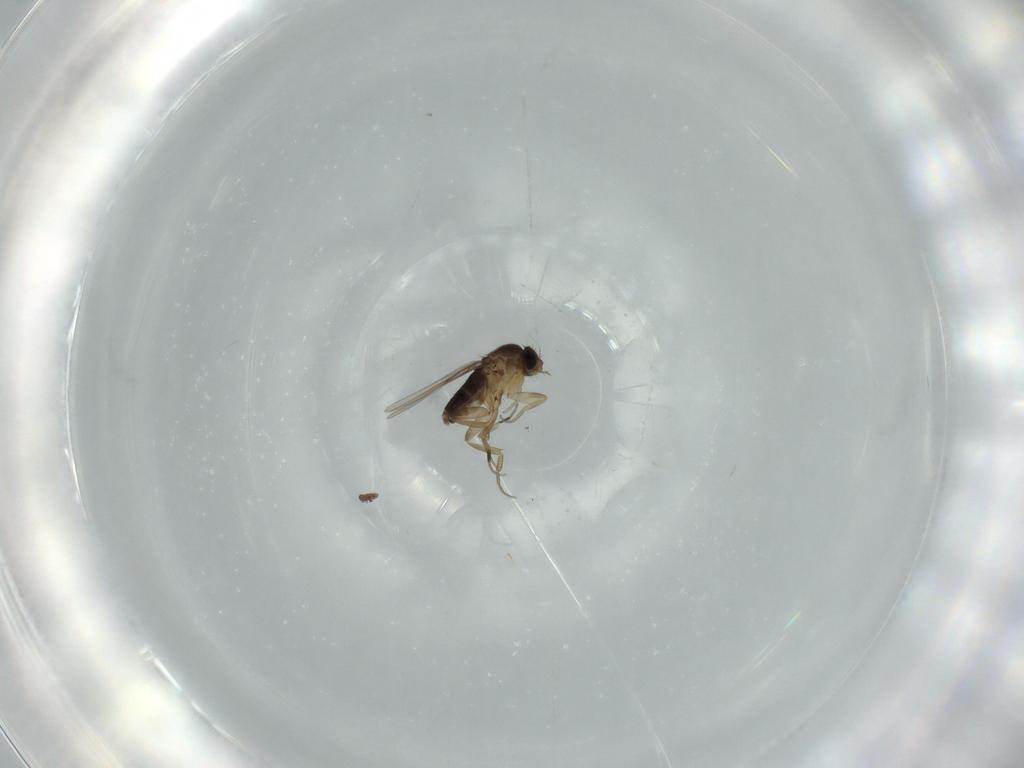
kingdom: Animalia
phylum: Arthropoda
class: Insecta
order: Diptera
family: Phoridae
